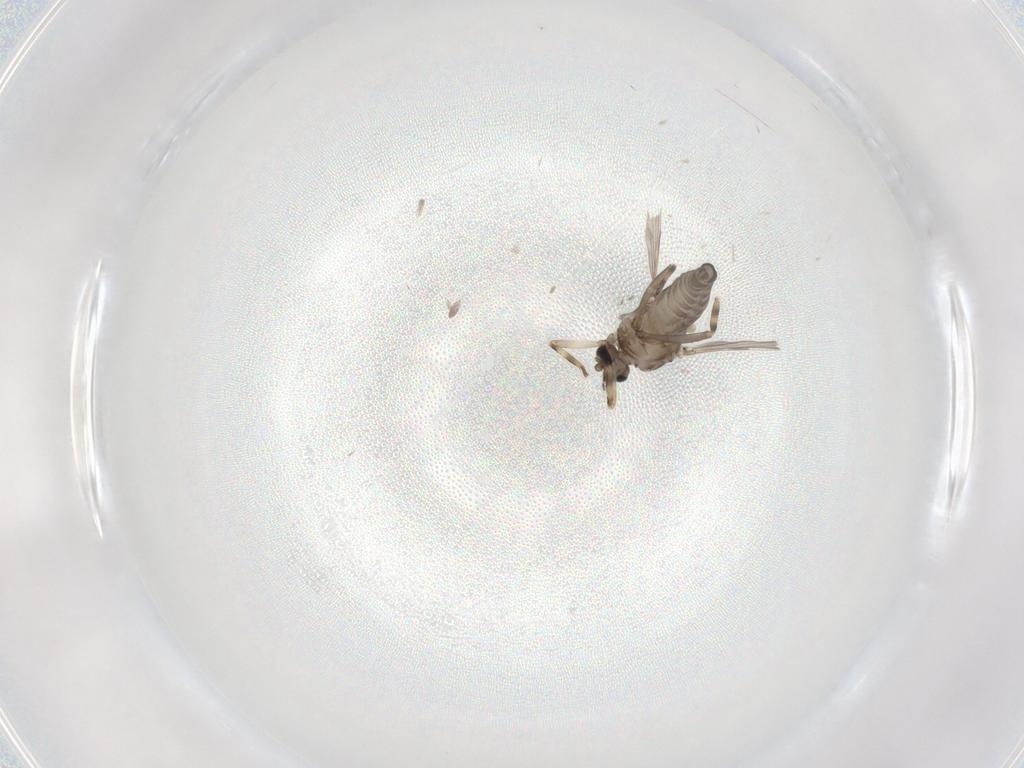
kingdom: Animalia
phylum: Arthropoda
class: Insecta
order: Diptera
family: Ceratopogonidae
